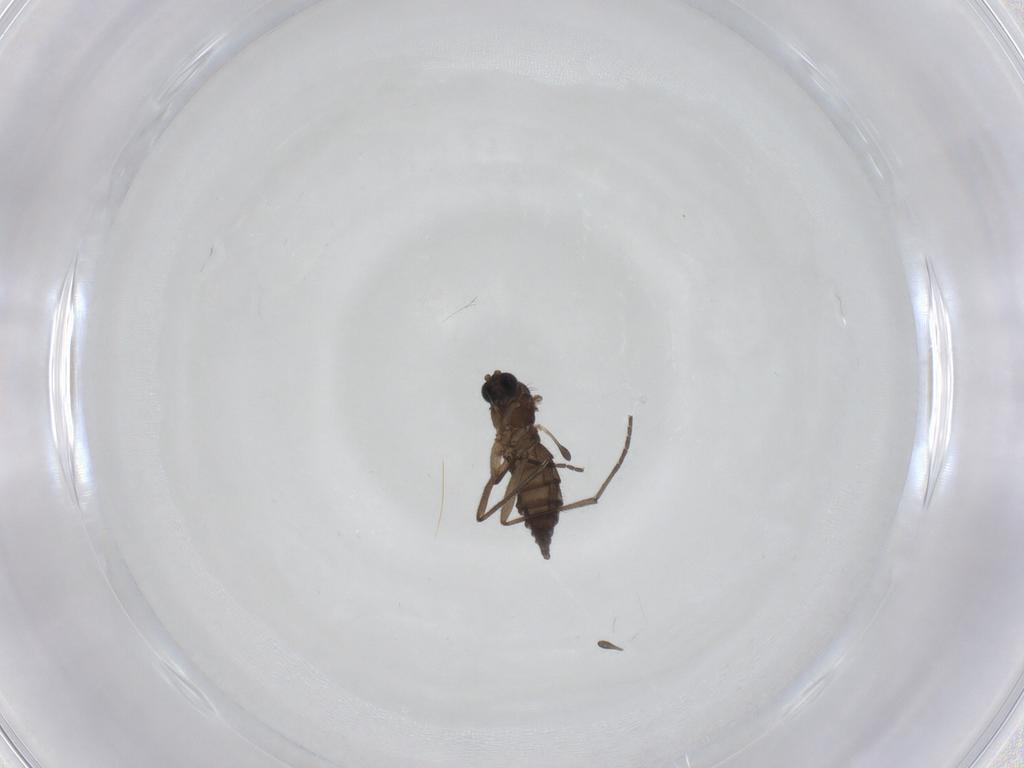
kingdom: Animalia
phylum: Arthropoda
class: Insecta
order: Diptera
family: Sciaridae
